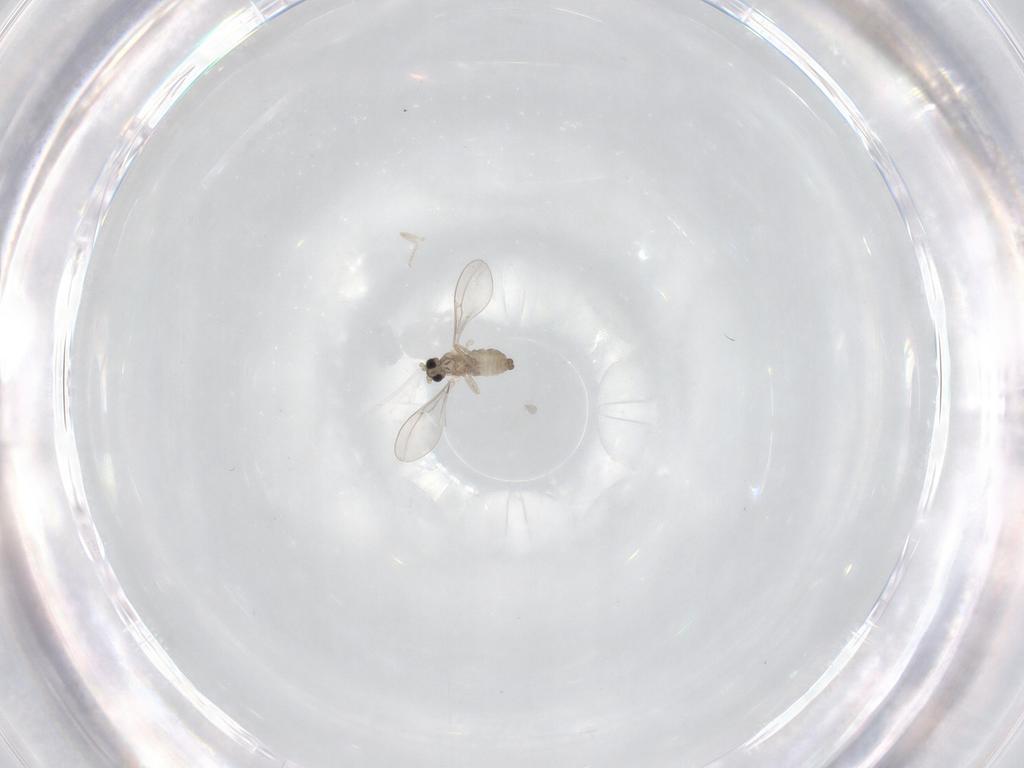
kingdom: Animalia
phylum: Arthropoda
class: Insecta
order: Diptera
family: Cecidomyiidae
